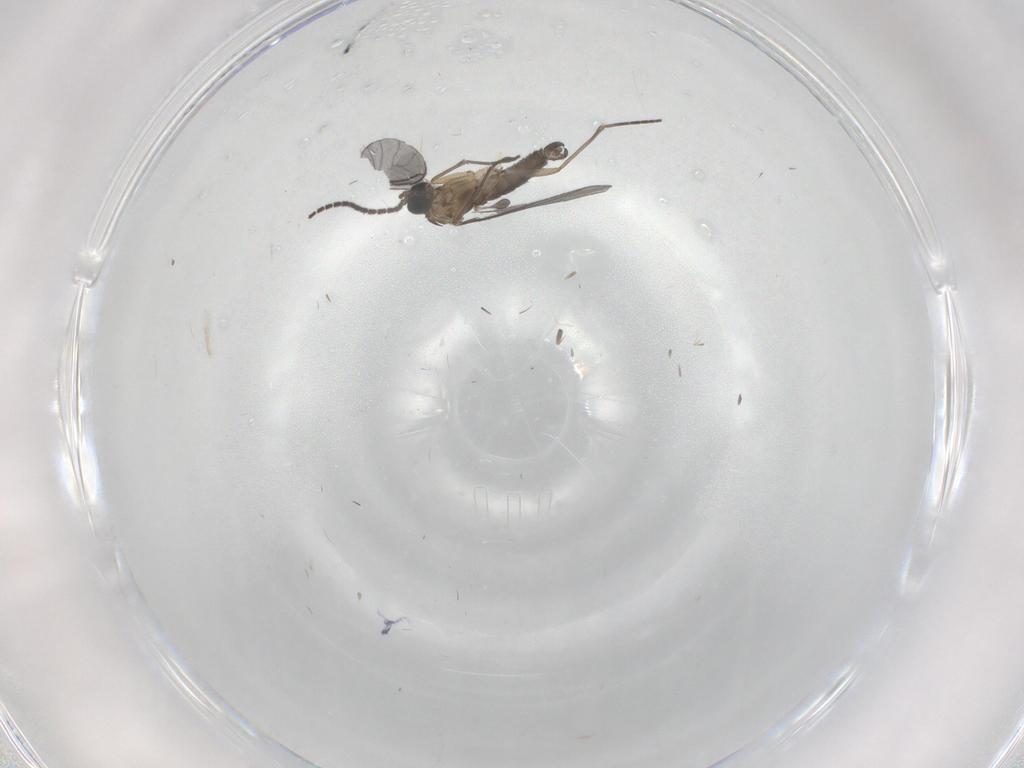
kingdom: Animalia
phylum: Arthropoda
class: Insecta
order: Diptera
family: Sciaridae
